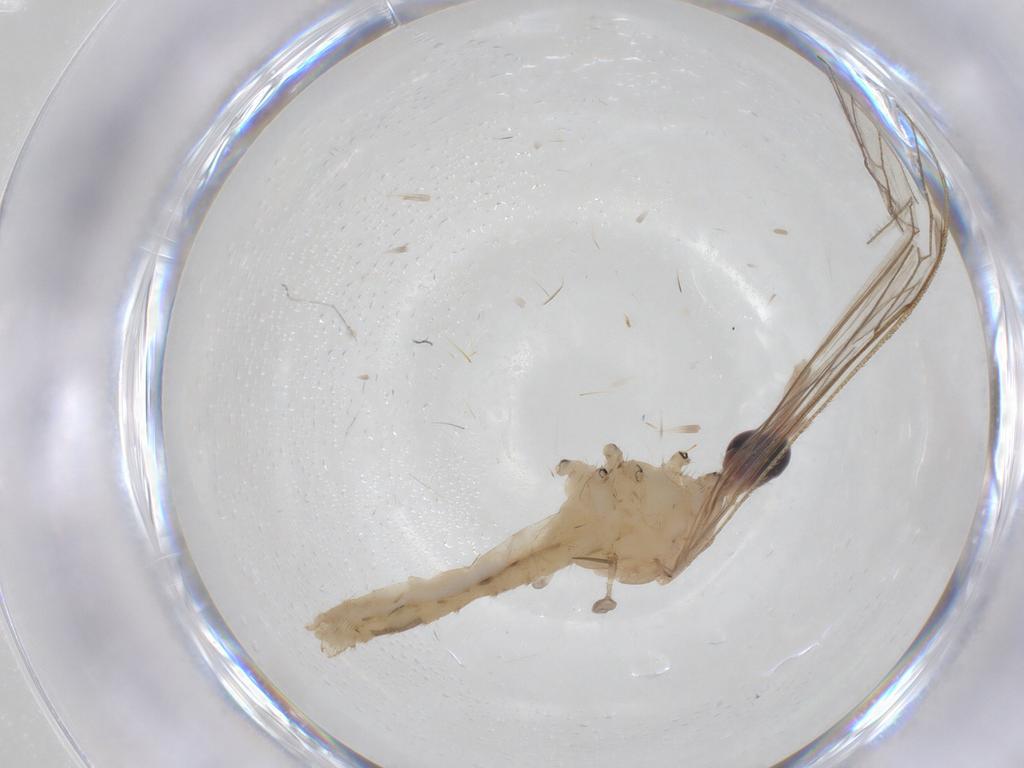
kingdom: Animalia
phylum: Arthropoda
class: Insecta
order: Diptera
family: Limoniidae
